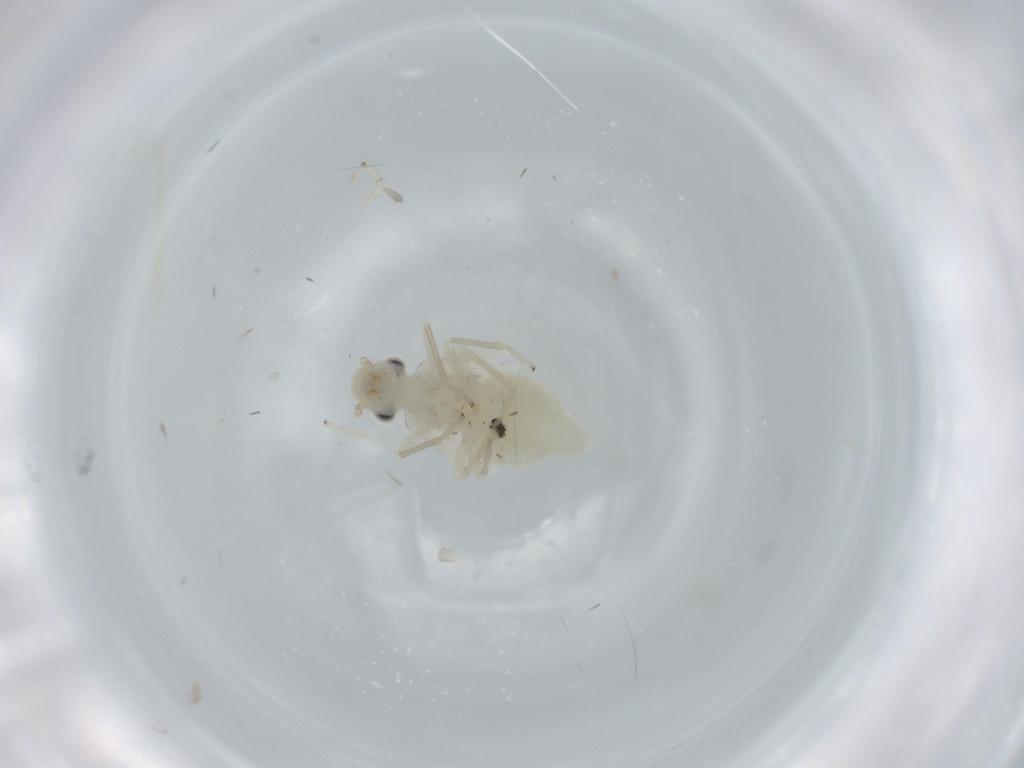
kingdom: Animalia
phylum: Arthropoda
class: Insecta
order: Psocodea
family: Caeciliusidae
